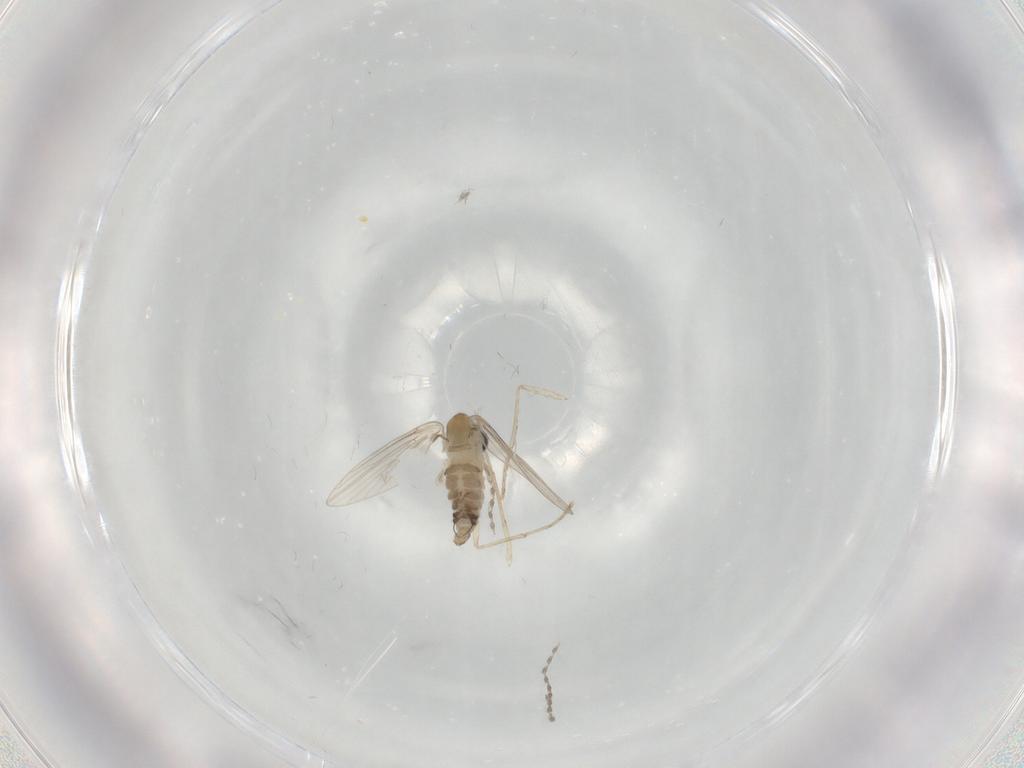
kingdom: Animalia
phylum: Arthropoda
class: Insecta
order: Diptera
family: Psychodidae
